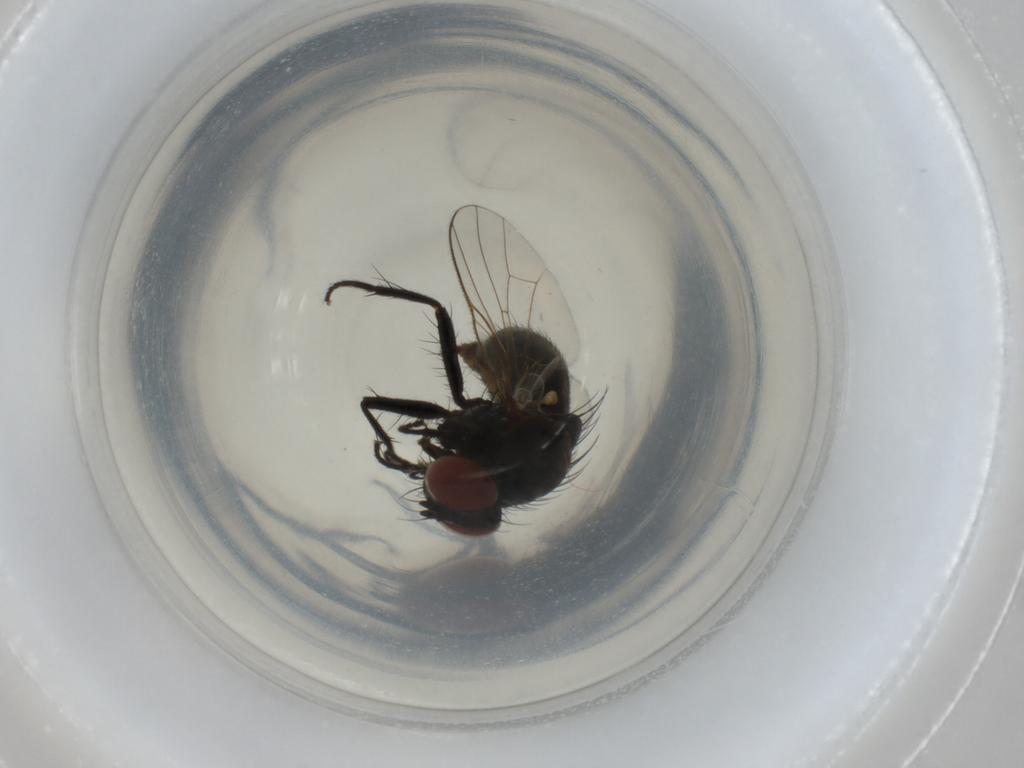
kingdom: Animalia
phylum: Arthropoda
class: Insecta
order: Diptera
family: Muscidae
